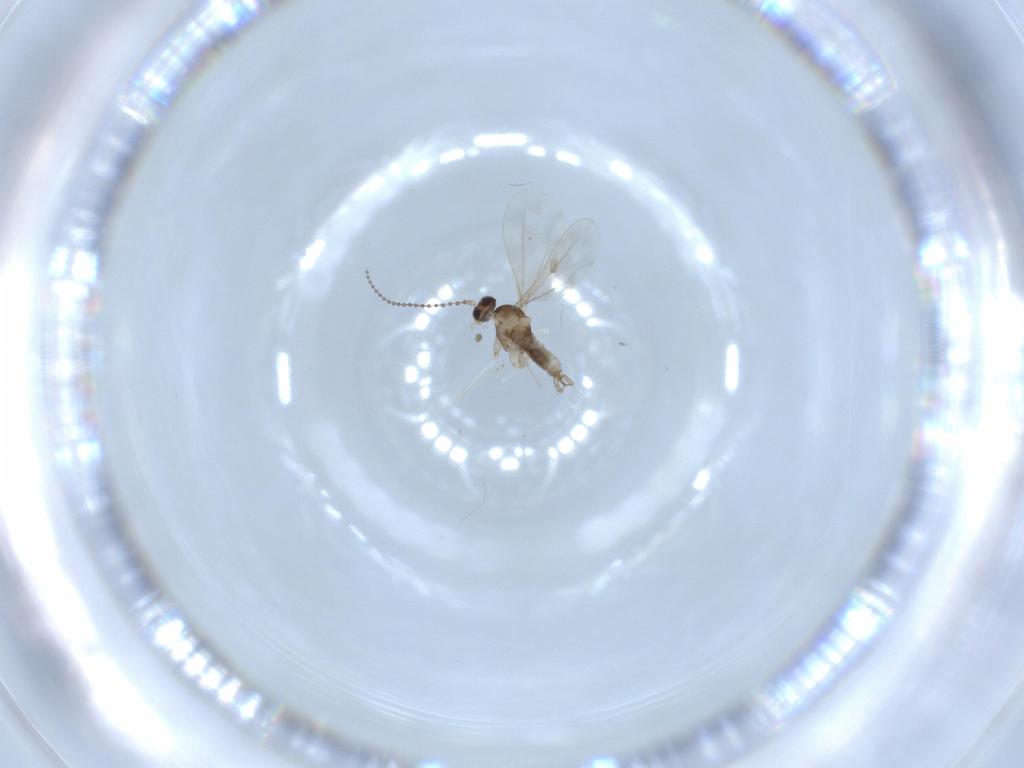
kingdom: Animalia
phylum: Arthropoda
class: Insecta
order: Diptera
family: Cecidomyiidae
